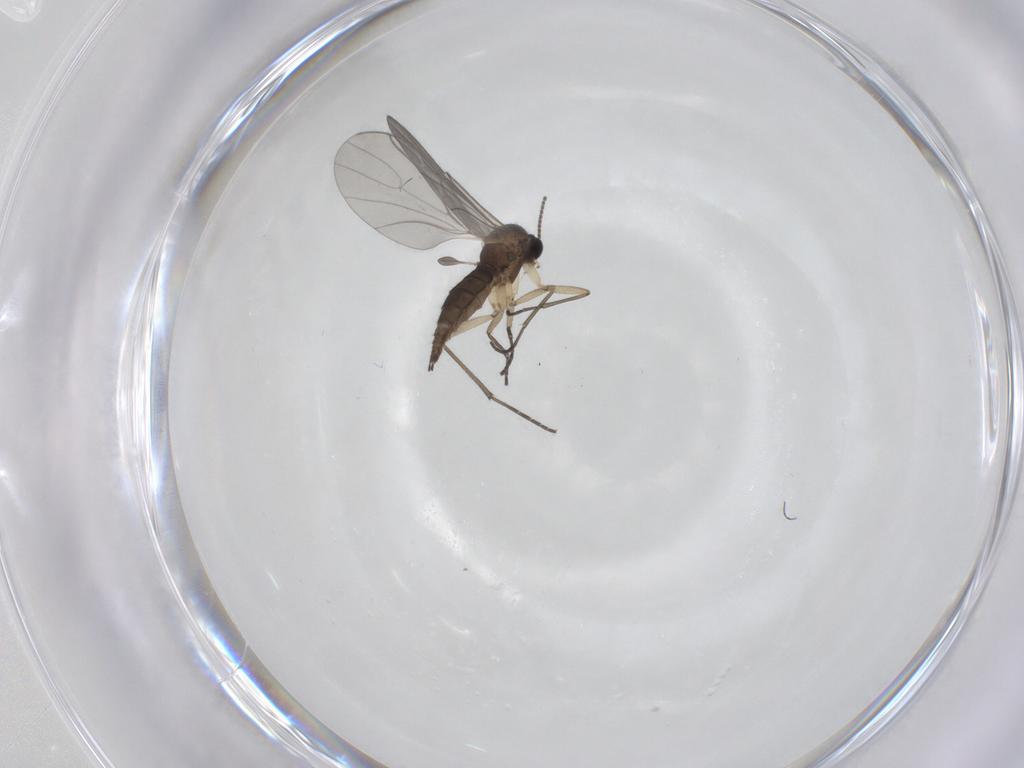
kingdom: Animalia
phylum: Arthropoda
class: Insecta
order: Diptera
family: Sciaridae
